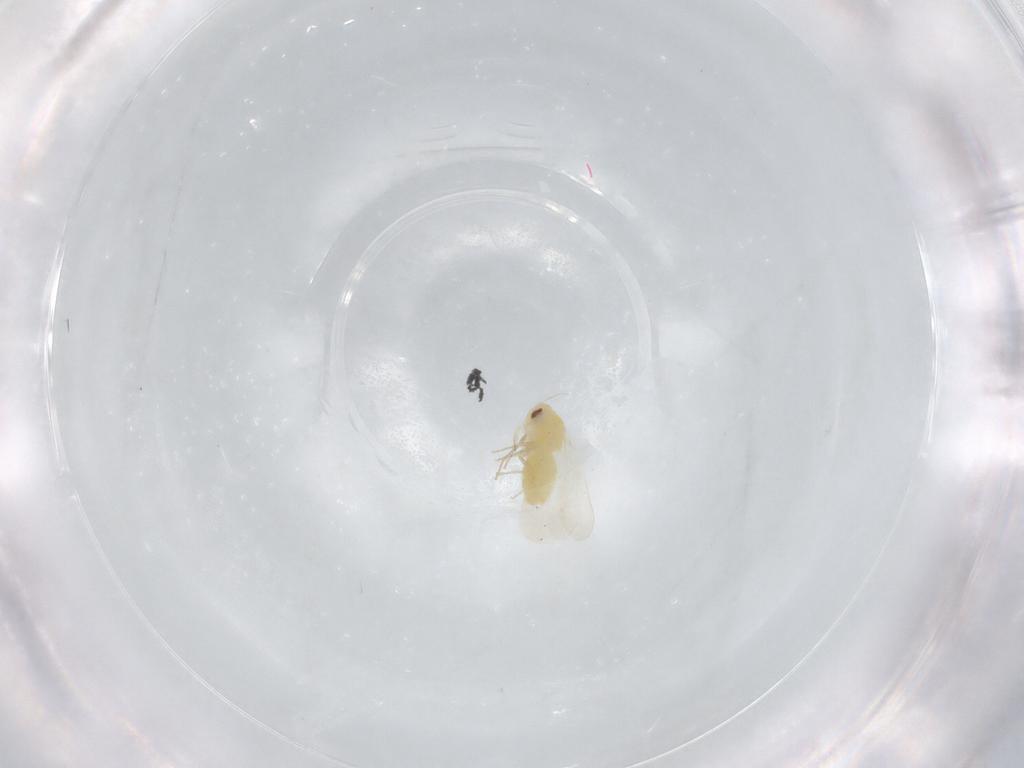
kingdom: Animalia
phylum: Arthropoda
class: Insecta
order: Hemiptera
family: Aleyrodidae
